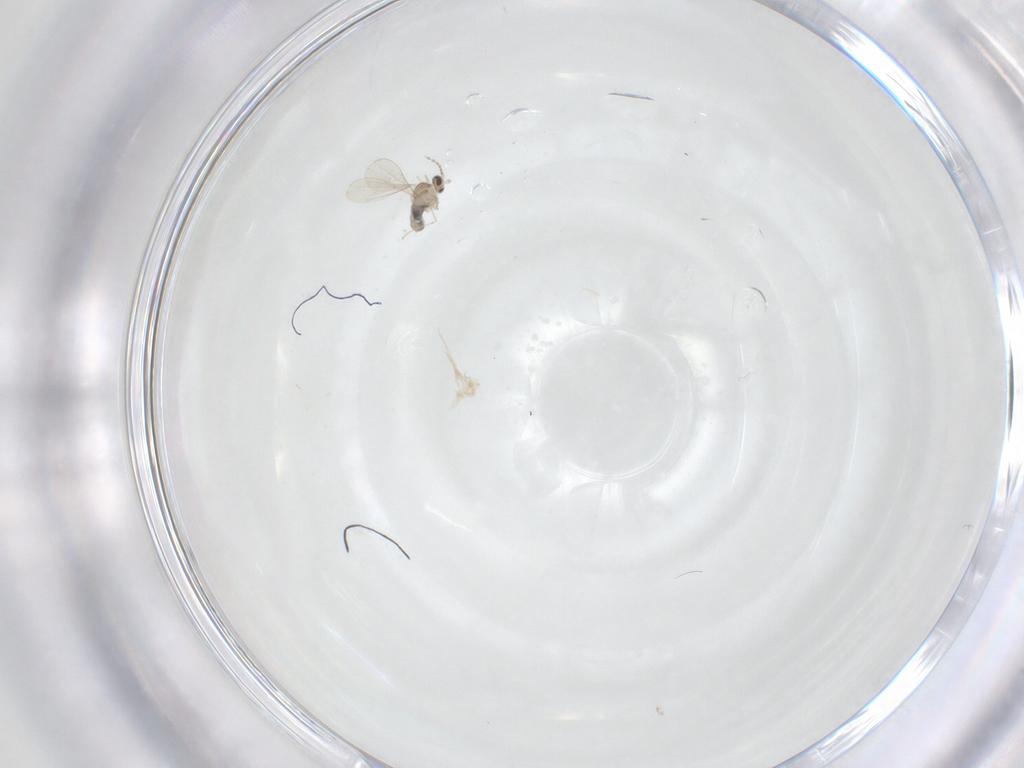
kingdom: Animalia
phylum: Arthropoda
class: Insecta
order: Diptera
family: Cecidomyiidae
